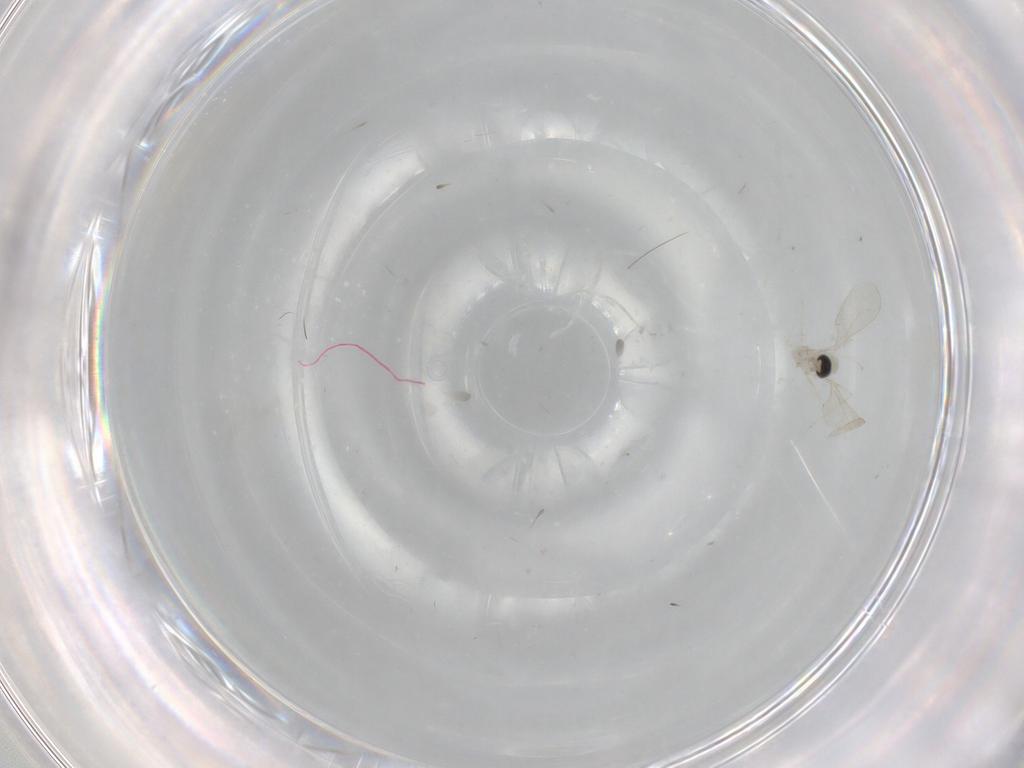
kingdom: Animalia
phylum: Arthropoda
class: Insecta
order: Diptera
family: Cecidomyiidae
